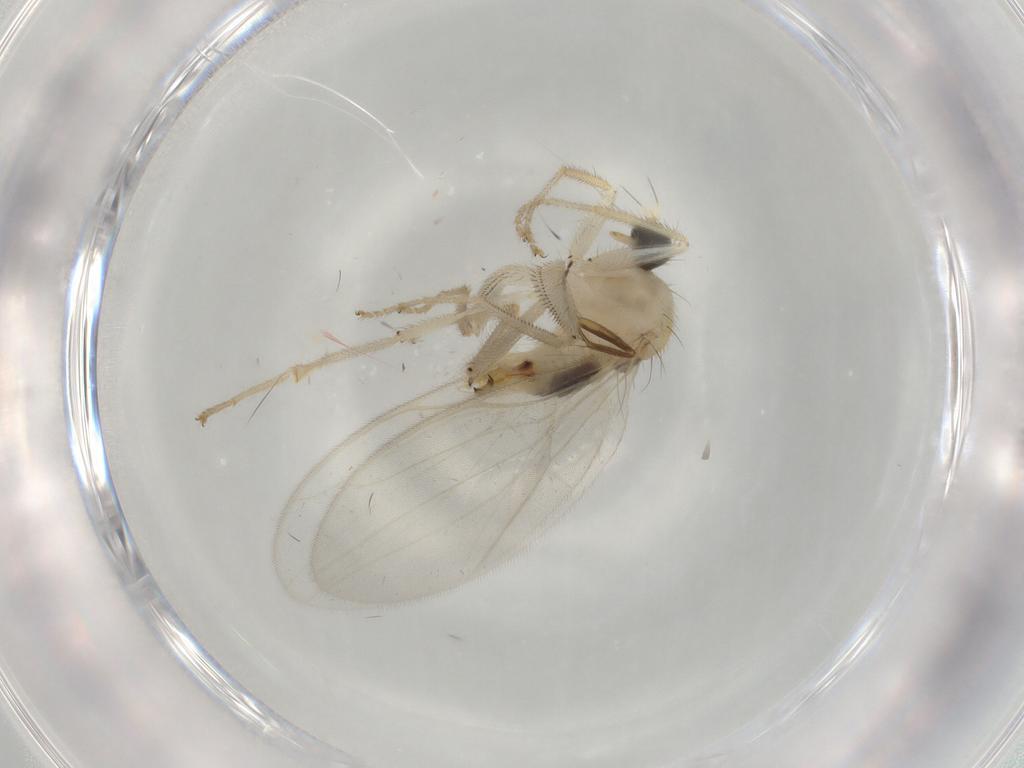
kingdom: Animalia
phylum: Arthropoda
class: Insecta
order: Diptera
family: Hybotidae
